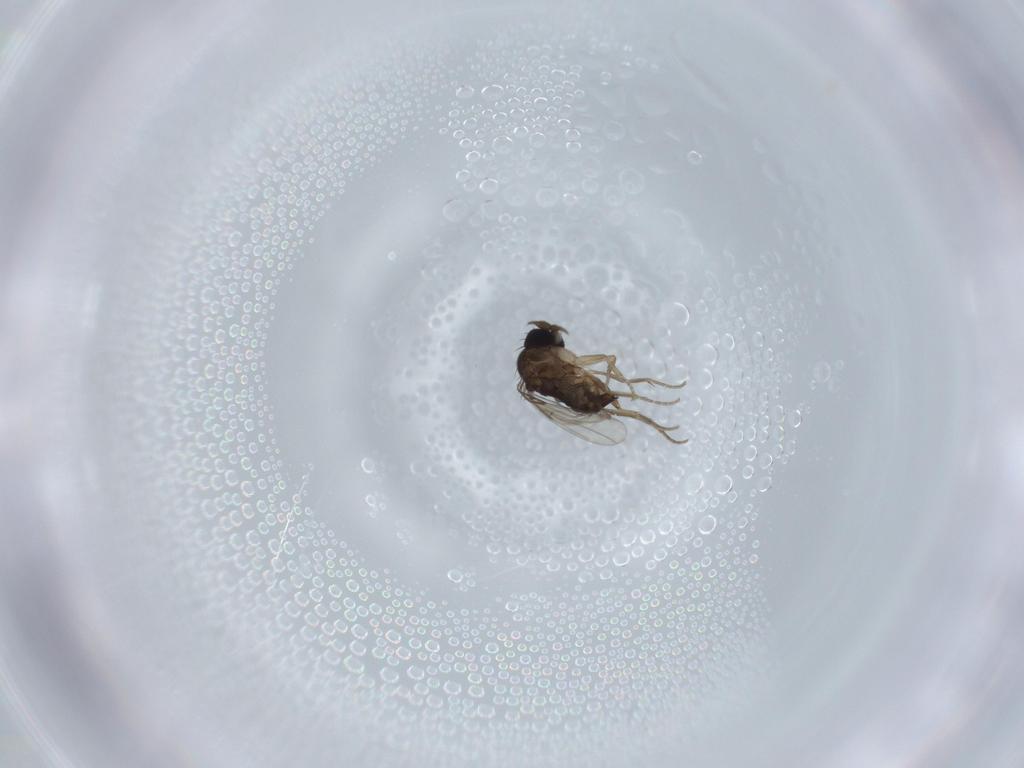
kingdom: Animalia
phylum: Arthropoda
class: Insecta
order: Diptera
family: Phoridae
